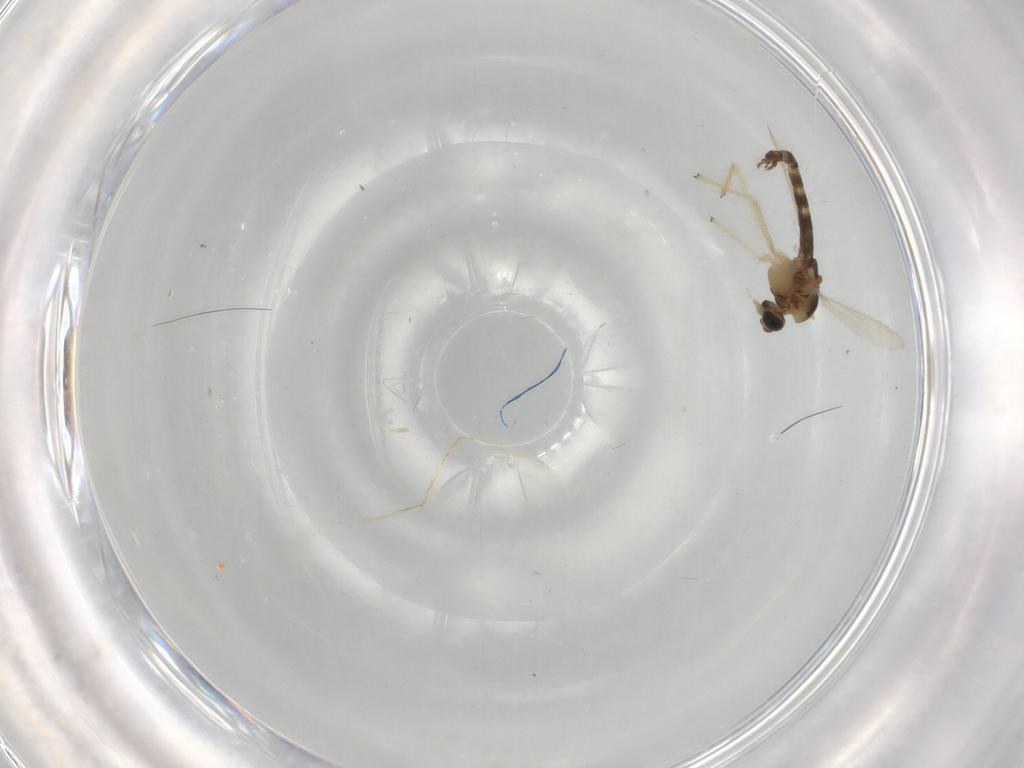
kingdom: Animalia
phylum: Arthropoda
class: Insecta
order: Diptera
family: Chironomidae
